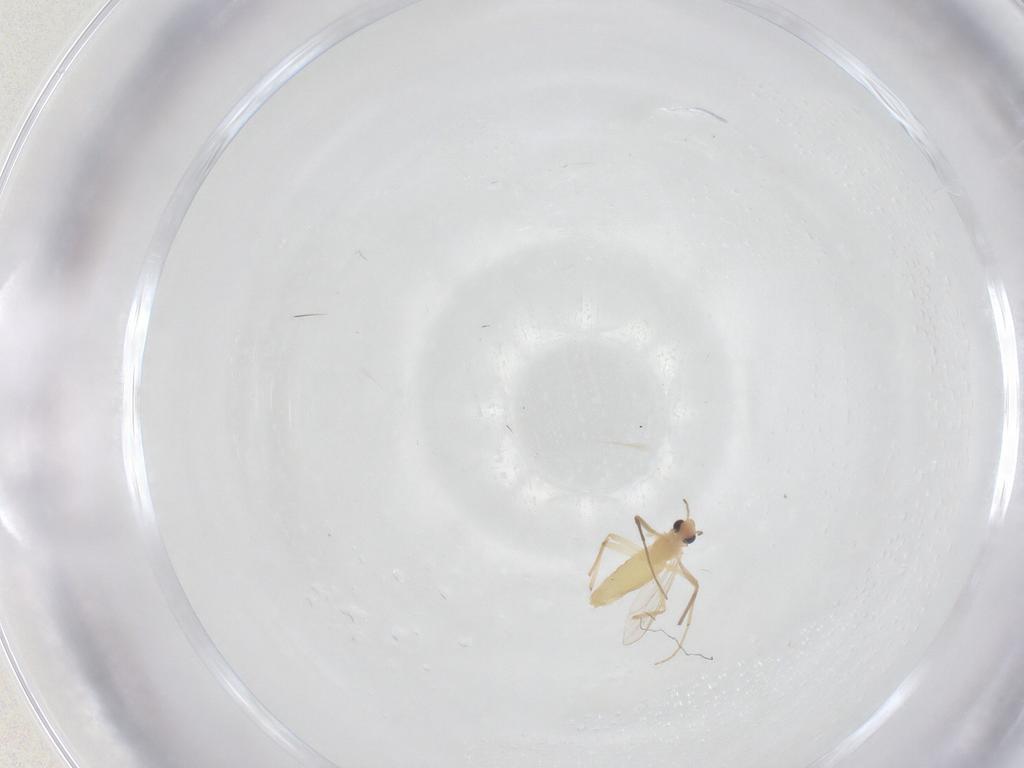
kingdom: Animalia
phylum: Arthropoda
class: Insecta
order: Diptera
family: Chironomidae
